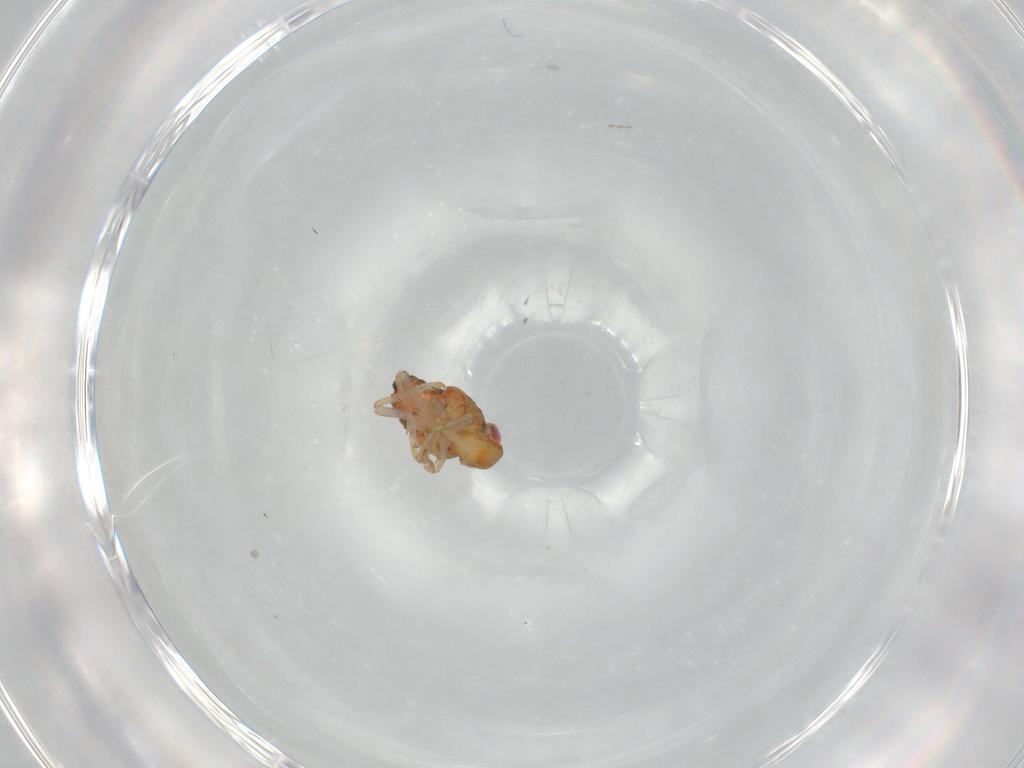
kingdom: Animalia
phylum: Arthropoda
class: Insecta
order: Hemiptera
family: Issidae
